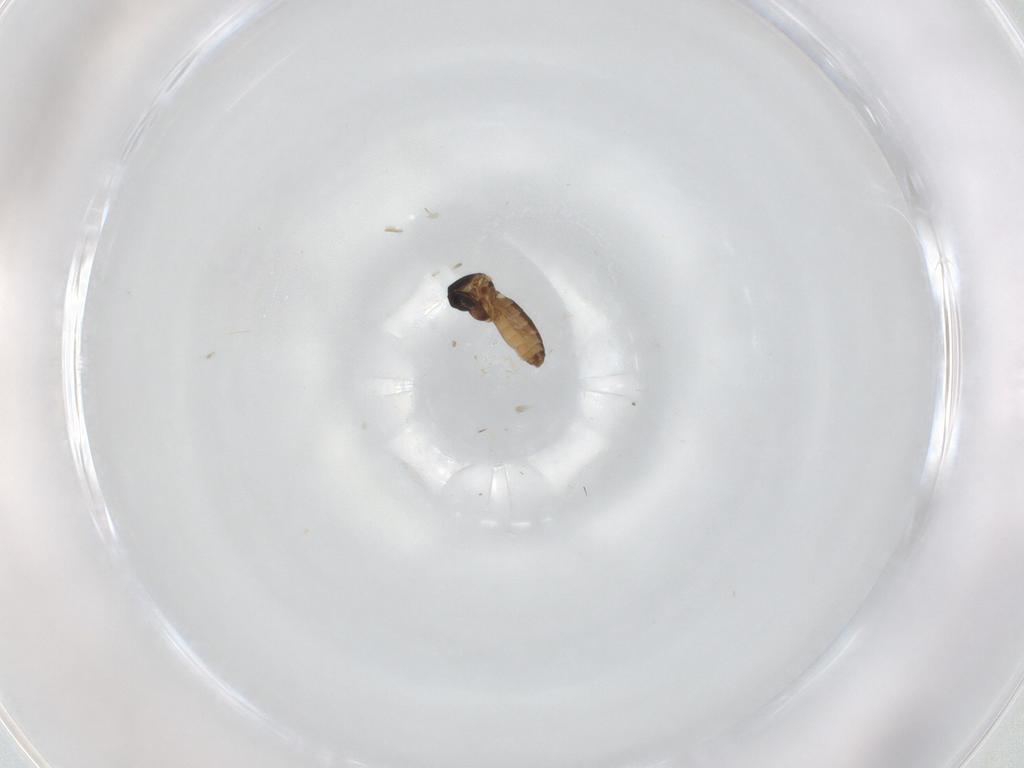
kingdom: Animalia
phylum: Arthropoda
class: Insecta
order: Diptera
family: Ceratopogonidae
